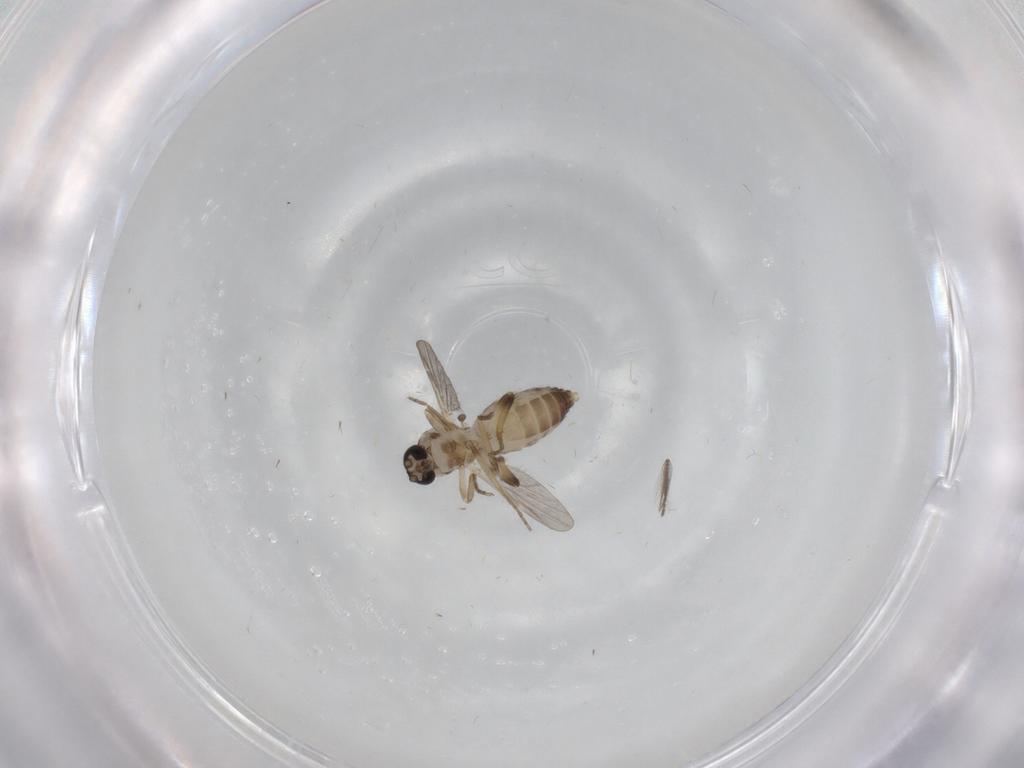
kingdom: Animalia
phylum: Arthropoda
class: Insecta
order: Diptera
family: Ceratopogonidae
